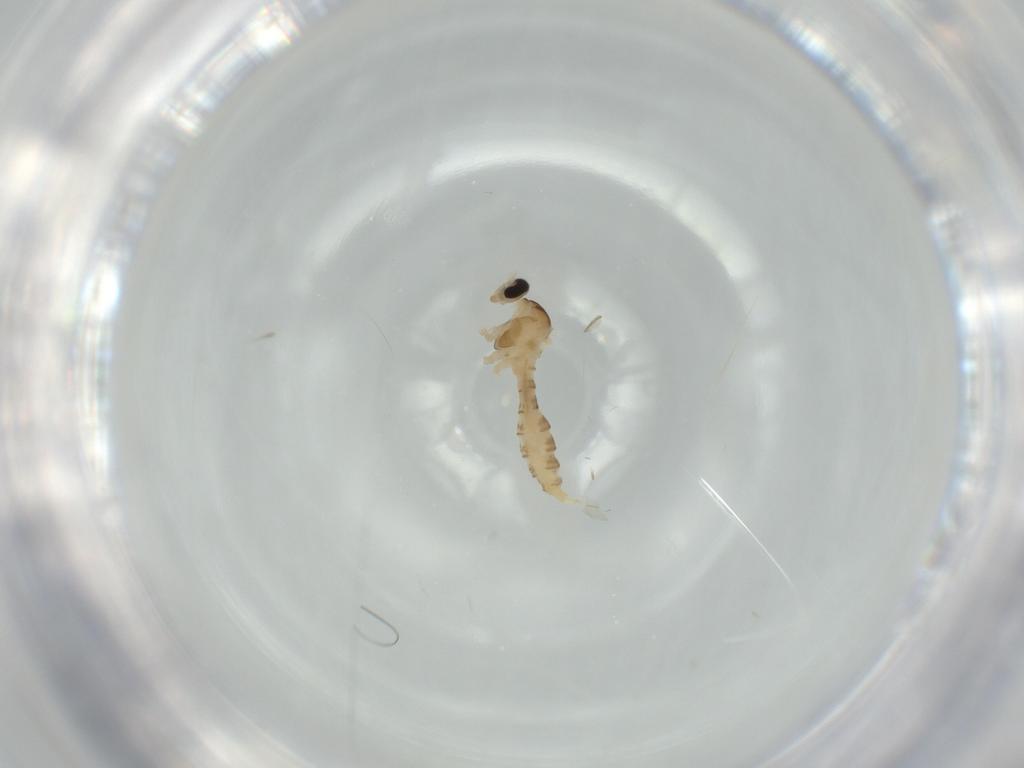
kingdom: Animalia
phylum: Arthropoda
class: Insecta
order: Diptera
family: Cecidomyiidae
